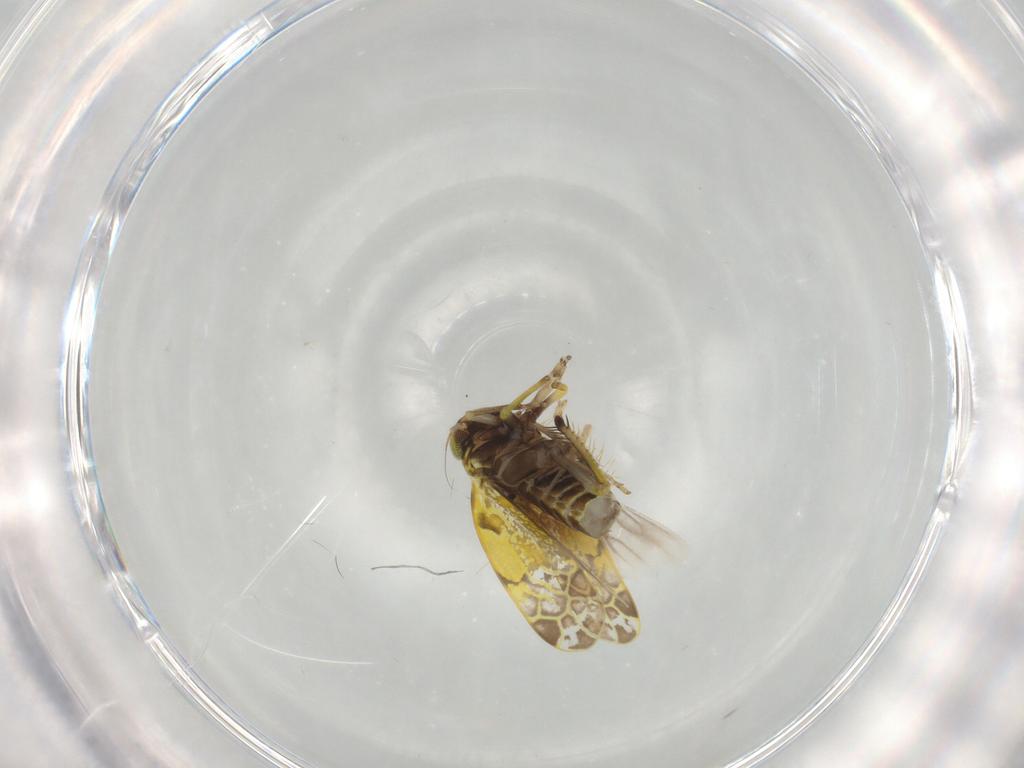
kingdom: Animalia
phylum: Arthropoda
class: Insecta
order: Hemiptera
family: Cicadellidae
